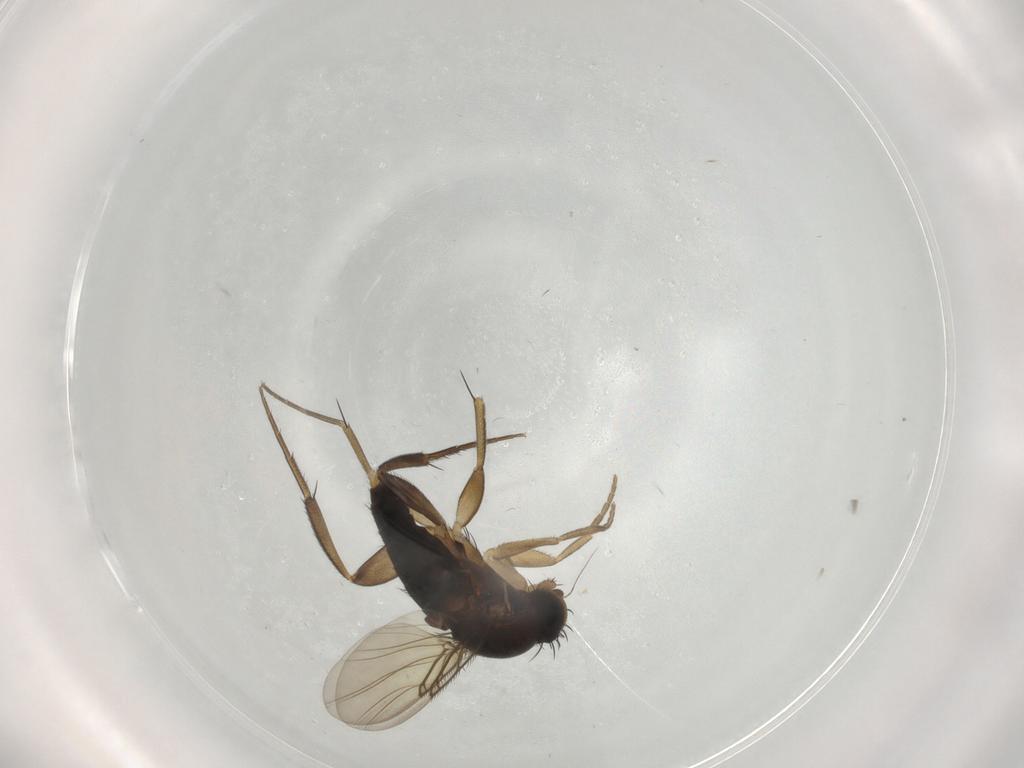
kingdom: Animalia
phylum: Arthropoda
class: Insecta
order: Diptera
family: Phoridae
